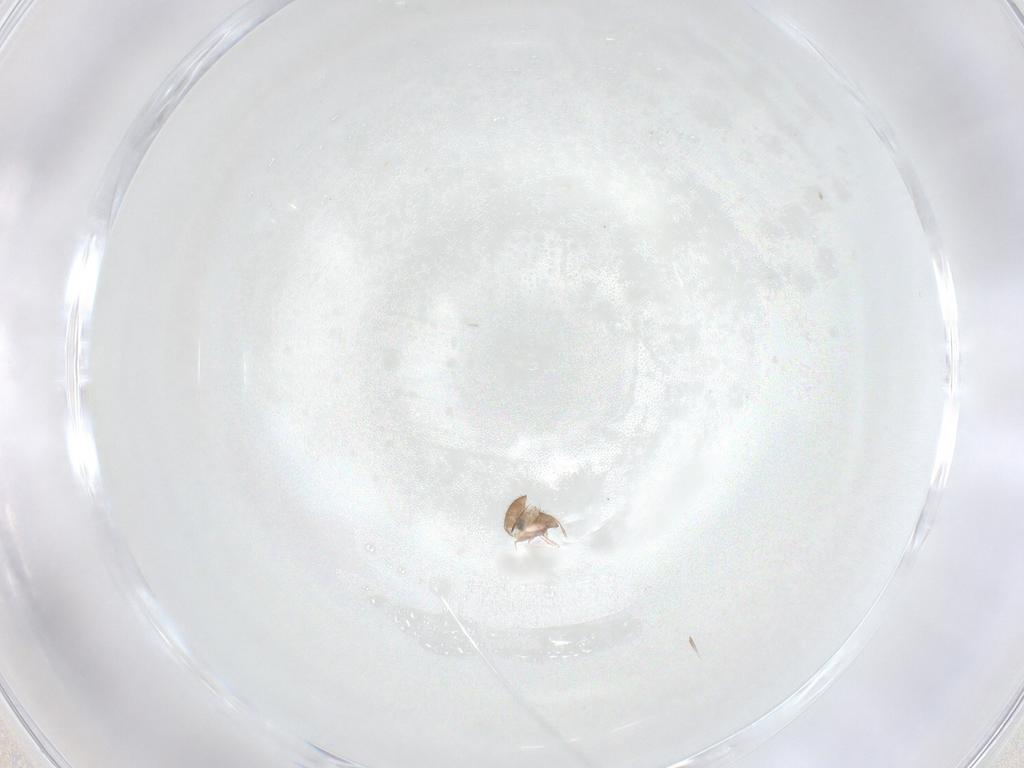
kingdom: Animalia
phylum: Arthropoda
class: Arachnida
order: Sarcoptiformes
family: Oribatulidae
